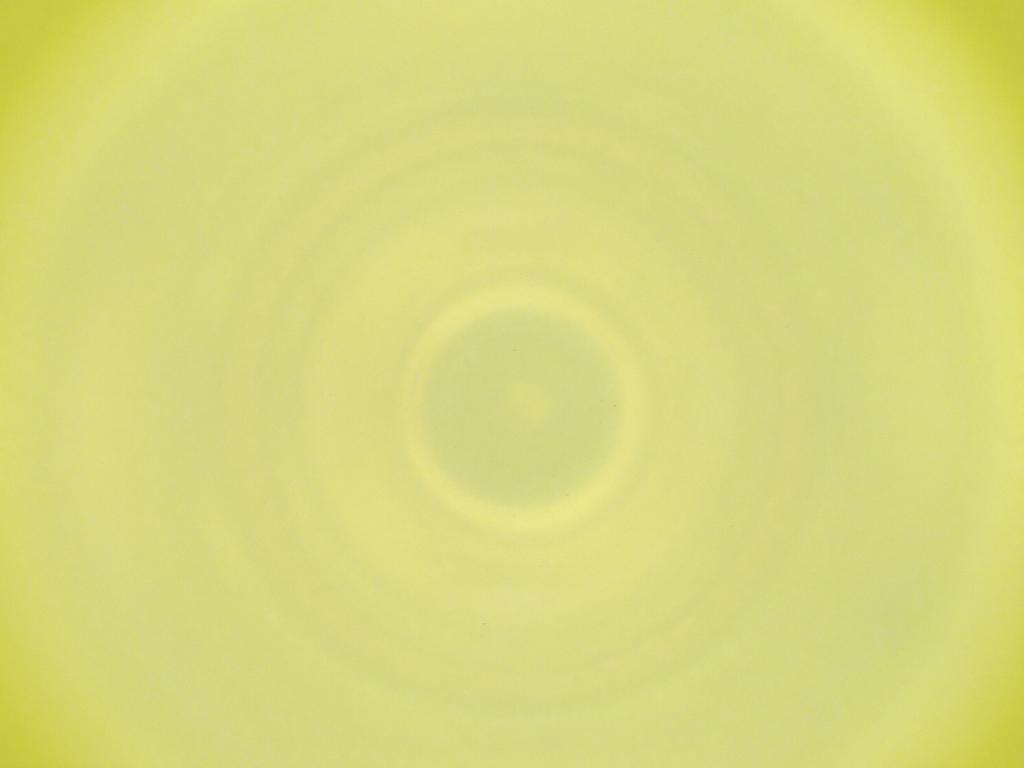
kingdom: Animalia
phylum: Arthropoda
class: Insecta
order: Diptera
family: Cecidomyiidae
